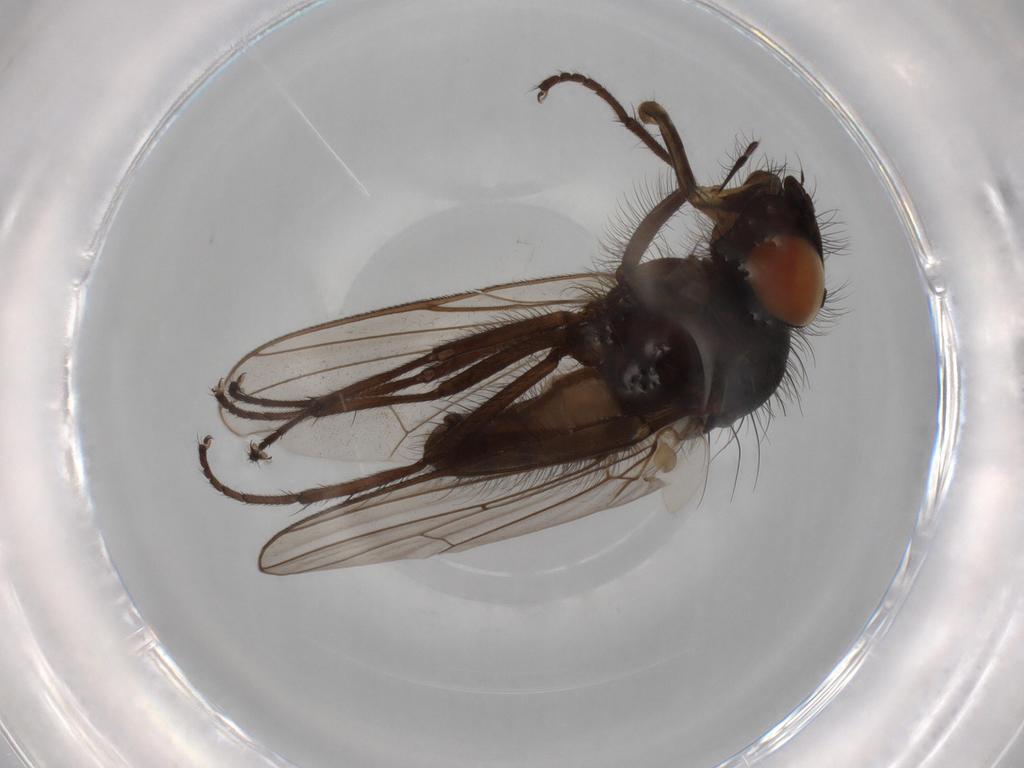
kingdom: Animalia
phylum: Arthropoda
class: Insecta
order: Diptera
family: Anthomyiidae
